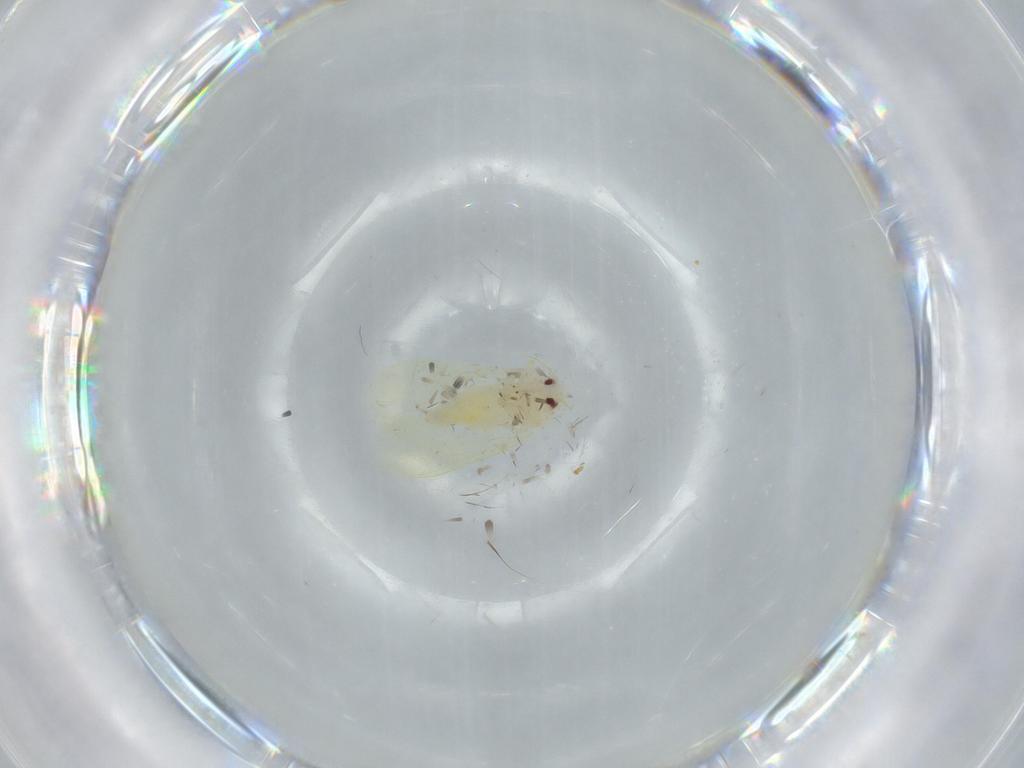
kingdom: Animalia
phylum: Arthropoda
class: Insecta
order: Hemiptera
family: Aleyrodidae
